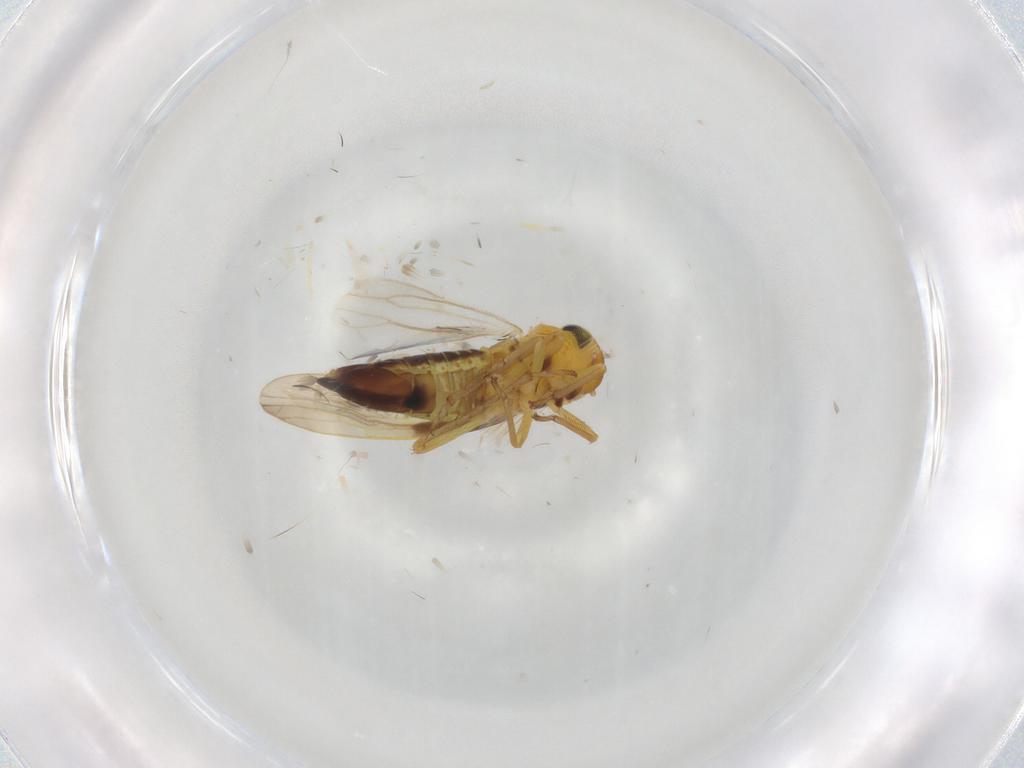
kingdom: Animalia
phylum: Arthropoda
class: Insecta
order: Hemiptera
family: Cicadellidae
